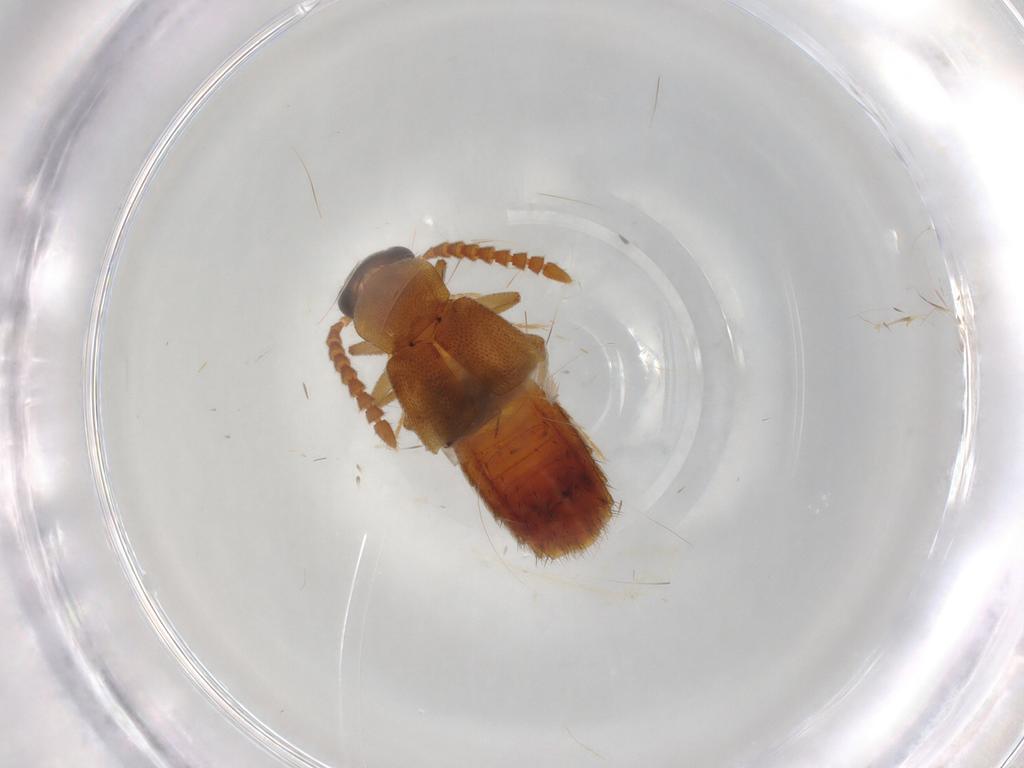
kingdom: Animalia
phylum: Arthropoda
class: Insecta
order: Coleoptera
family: Staphylinidae
